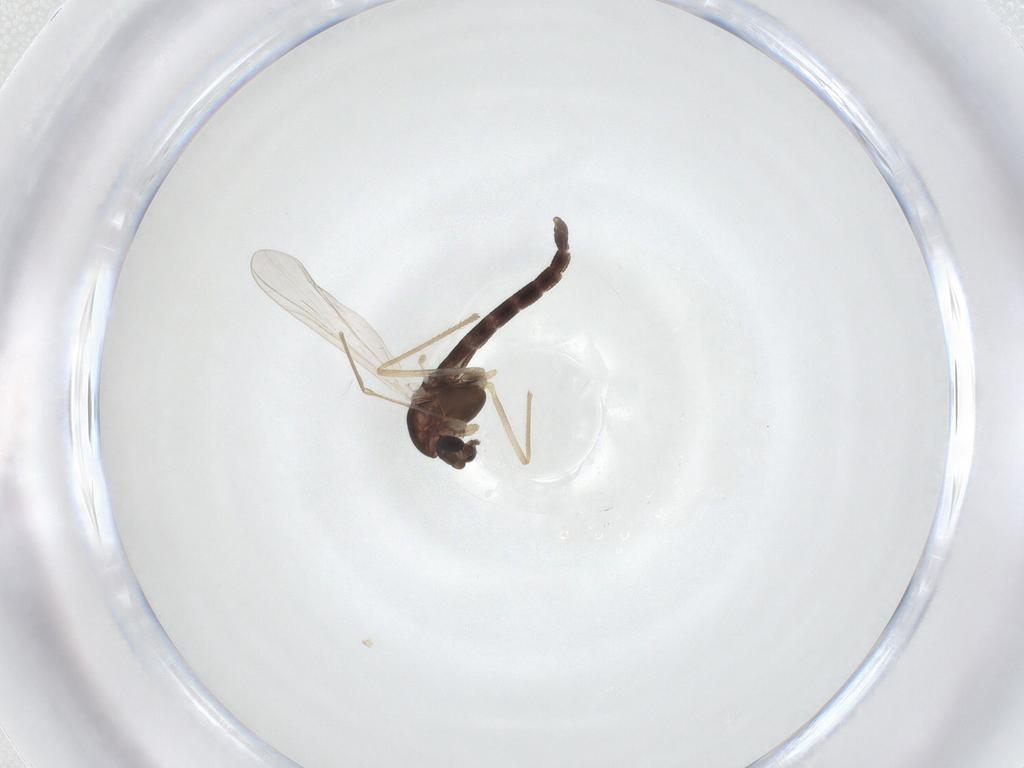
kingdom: Animalia
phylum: Arthropoda
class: Insecta
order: Diptera
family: Chironomidae
